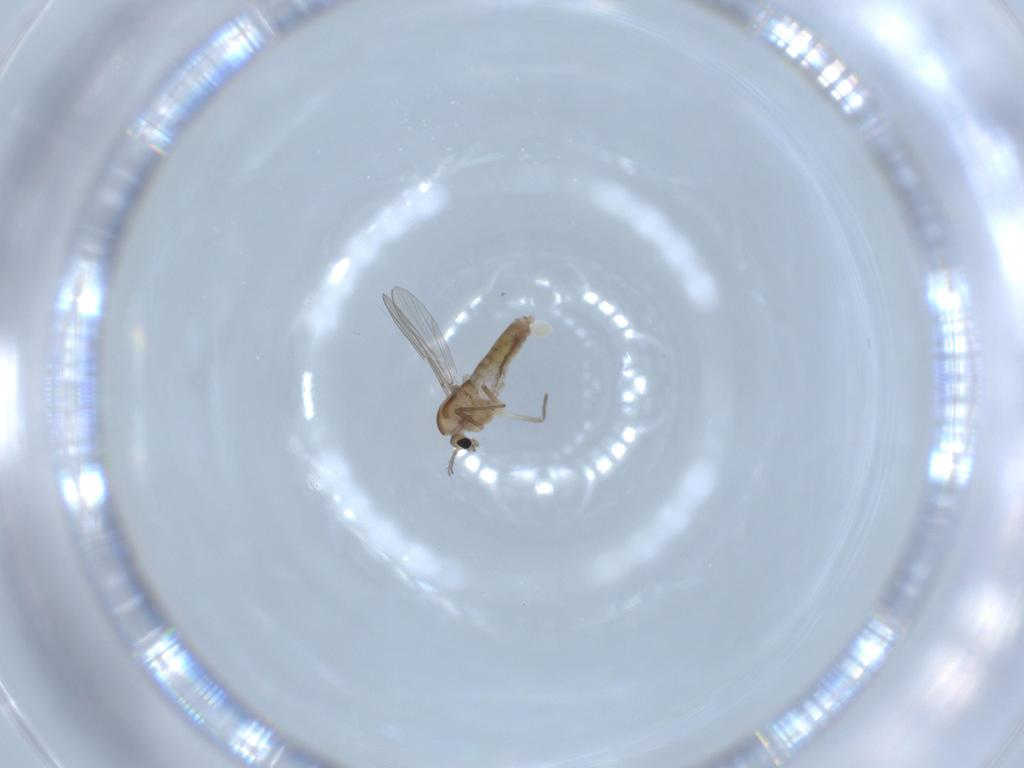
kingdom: Animalia
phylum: Arthropoda
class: Insecta
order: Diptera
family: Chironomidae
